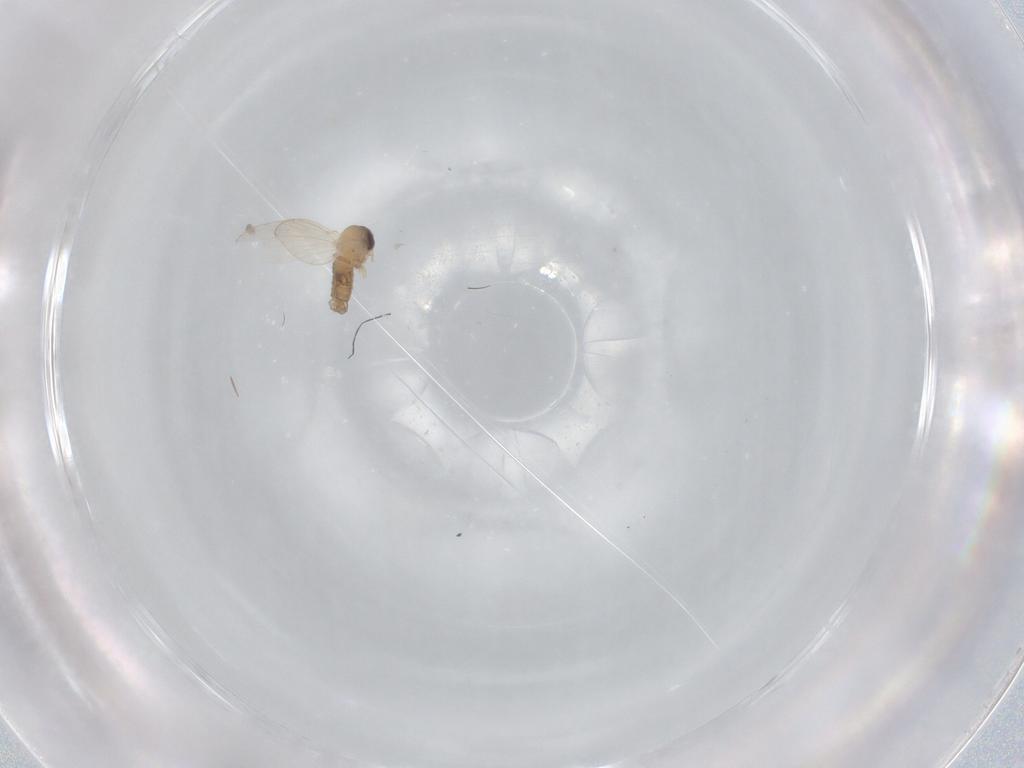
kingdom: Animalia
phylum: Arthropoda
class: Insecta
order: Diptera
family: Psychodidae
